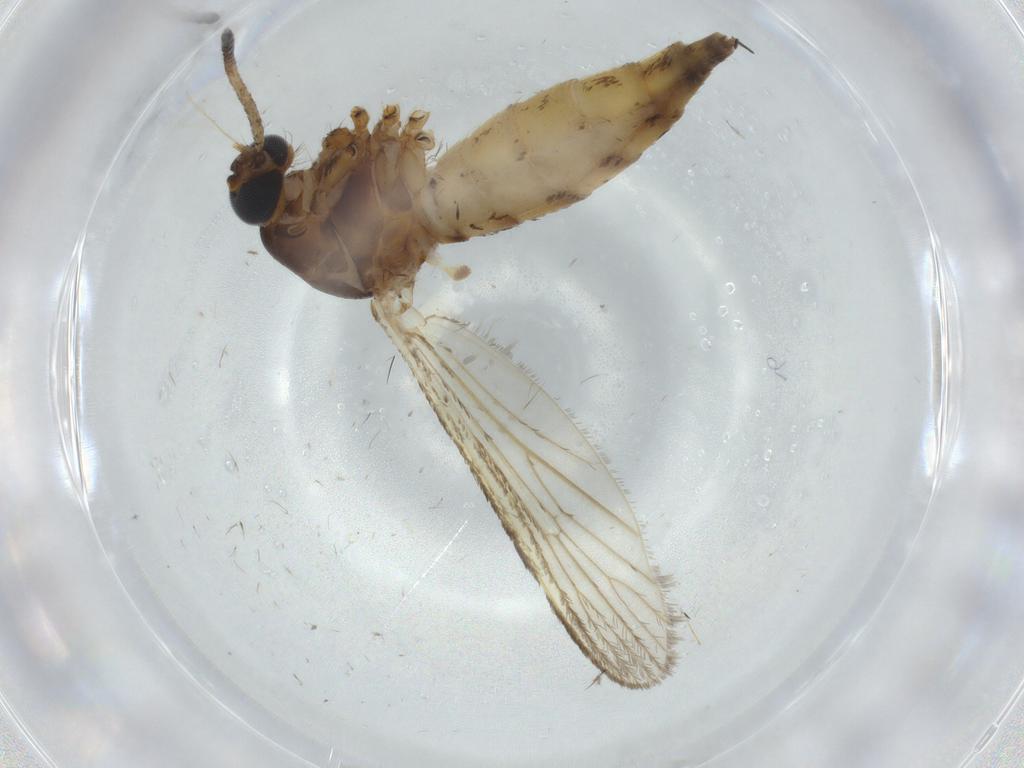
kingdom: Animalia
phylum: Arthropoda
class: Insecta
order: Diptera
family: Cecidomyiidae
